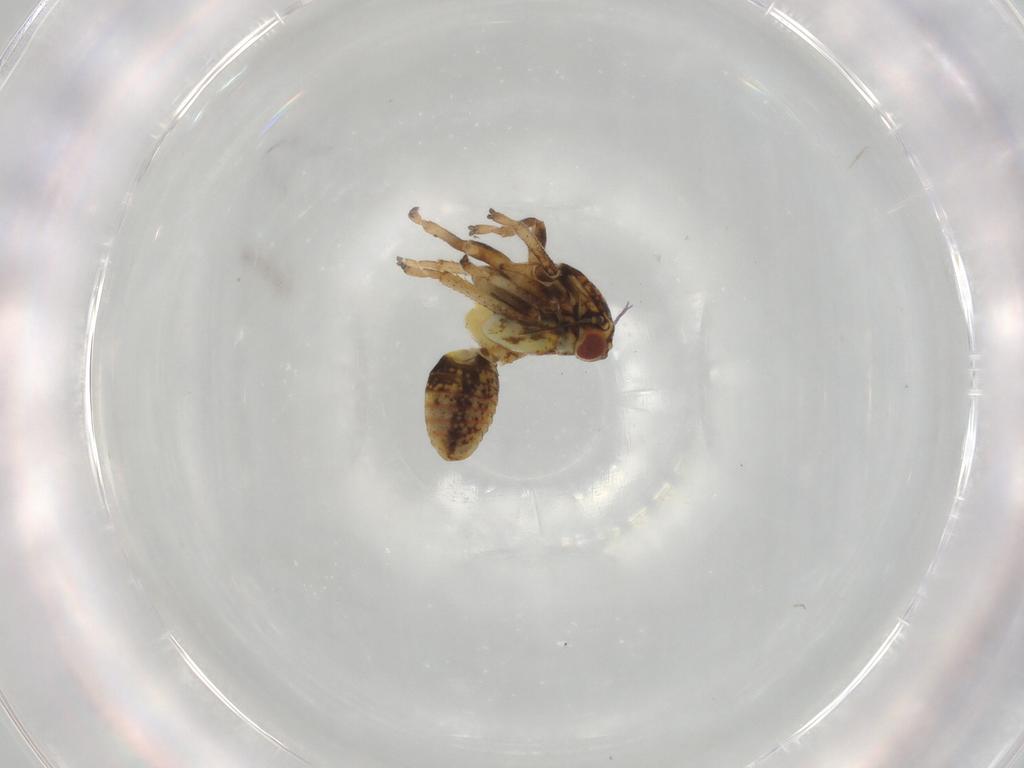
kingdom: Animalia
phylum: Arthropoda
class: Insecta
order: Hemiptera
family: Cicadellidae
